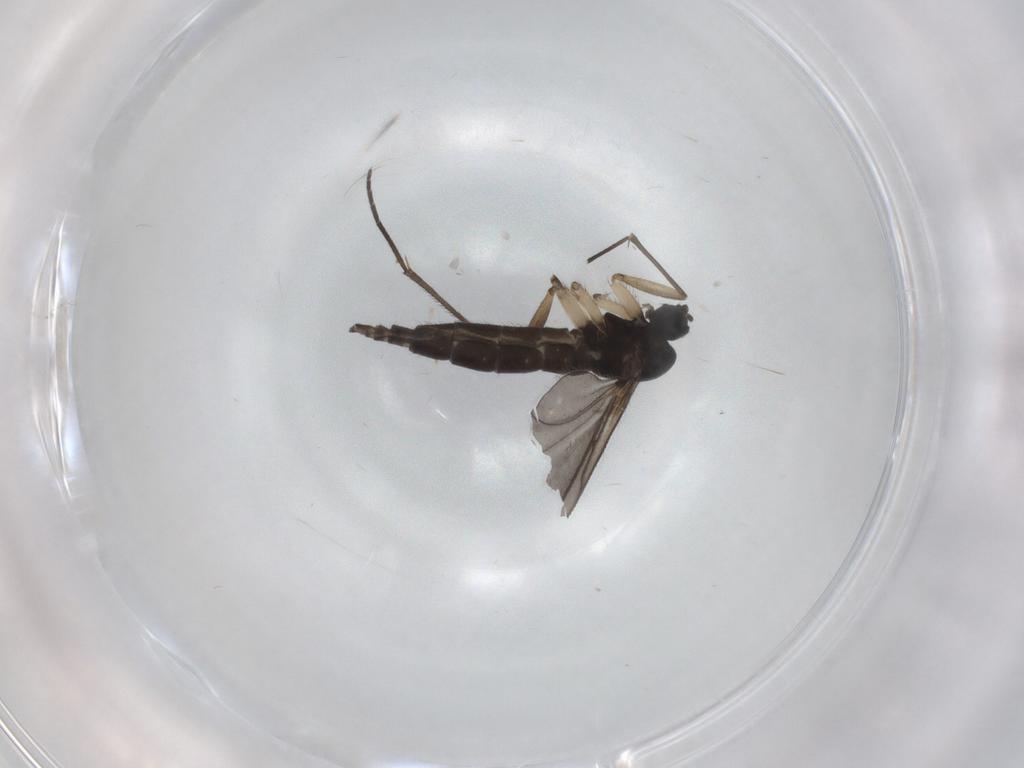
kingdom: Animalia
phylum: Arthropoda
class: Insecta
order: Diptera
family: Sciaridae
